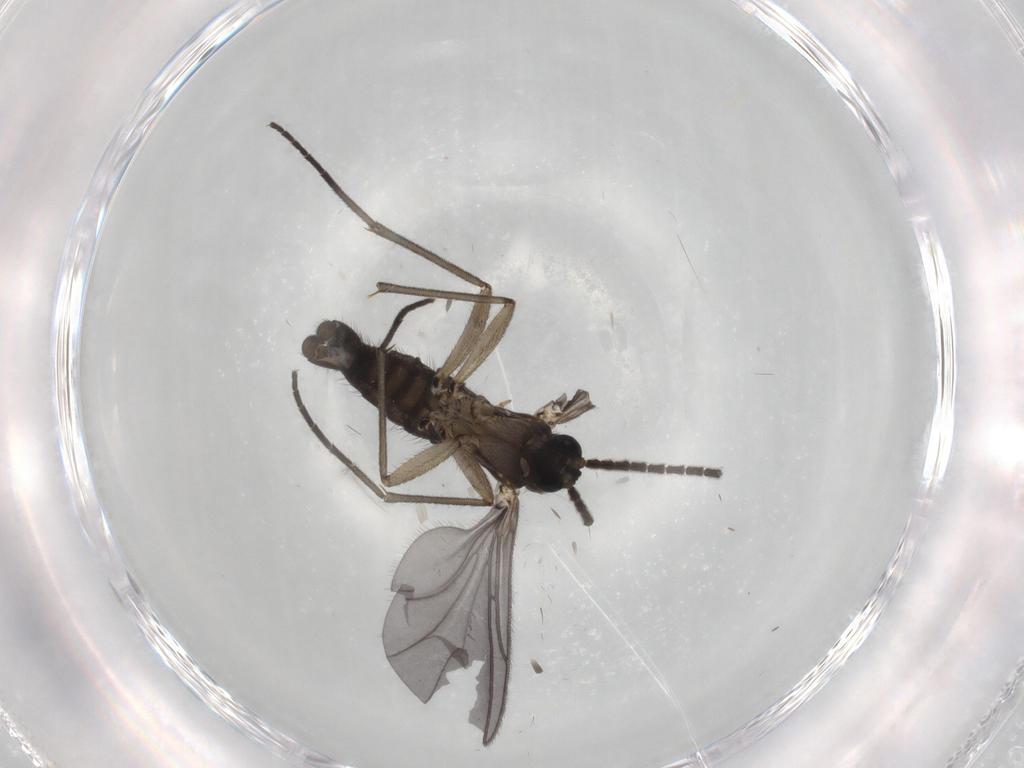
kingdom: Animalia
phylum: Arthropoda
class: Insecta
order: Diptera
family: Sciaridae
